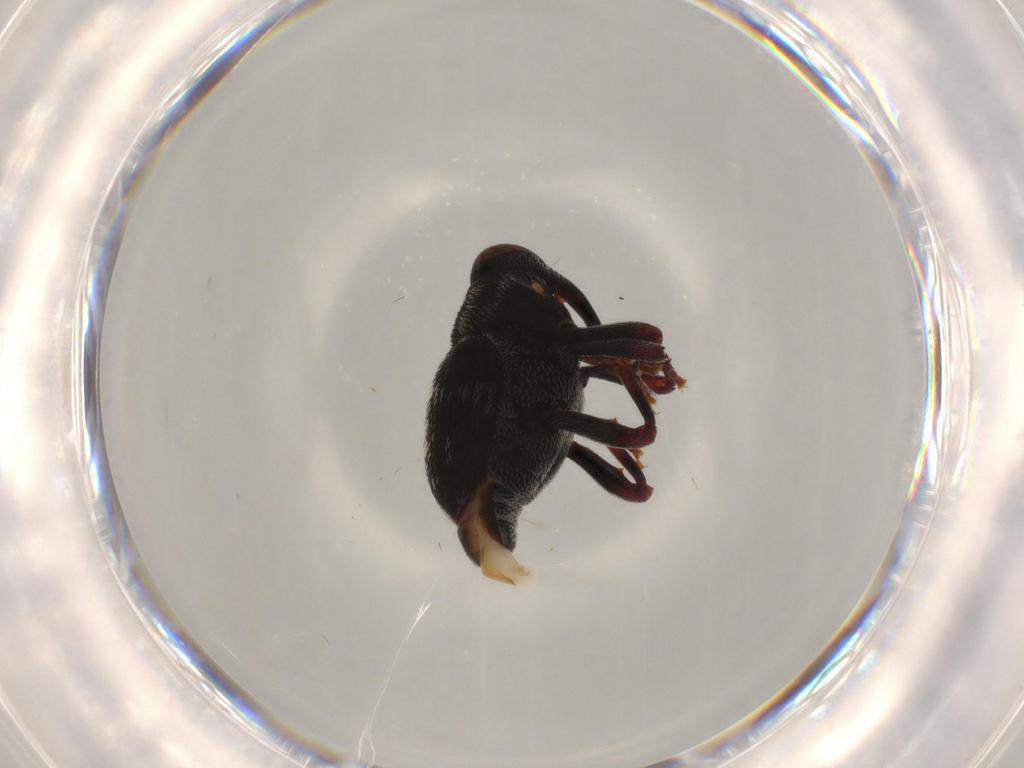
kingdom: Animalia
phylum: Arthropoda
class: Insecta
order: Coleoptera
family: Curculionidae
